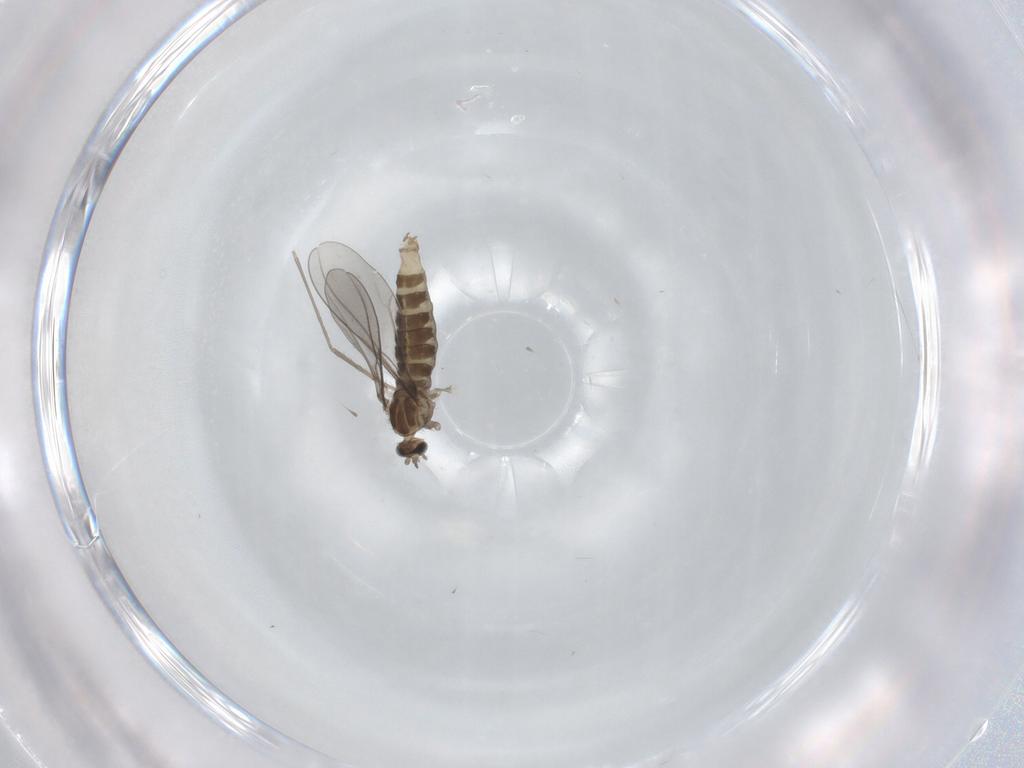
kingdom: Animalia
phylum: Arthropoda
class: Insecta
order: Diptera
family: Cecidomyiidae
